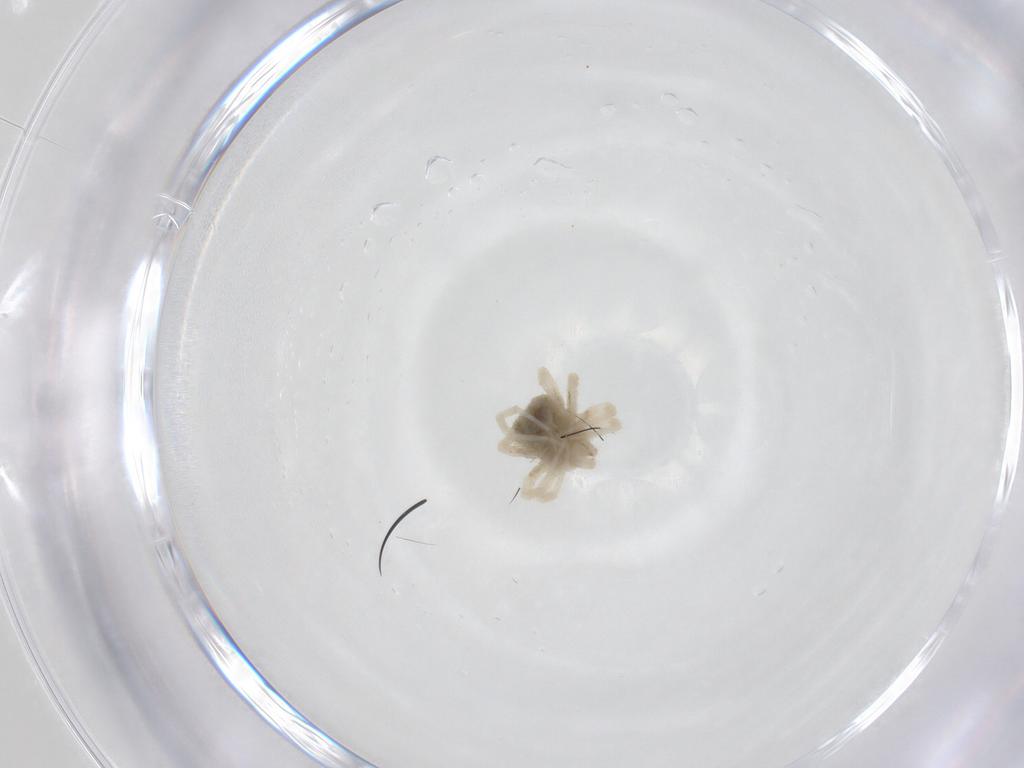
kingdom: Animalia
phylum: Arthropoda
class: Arachnida
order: Trombidiformes
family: Anystidae
